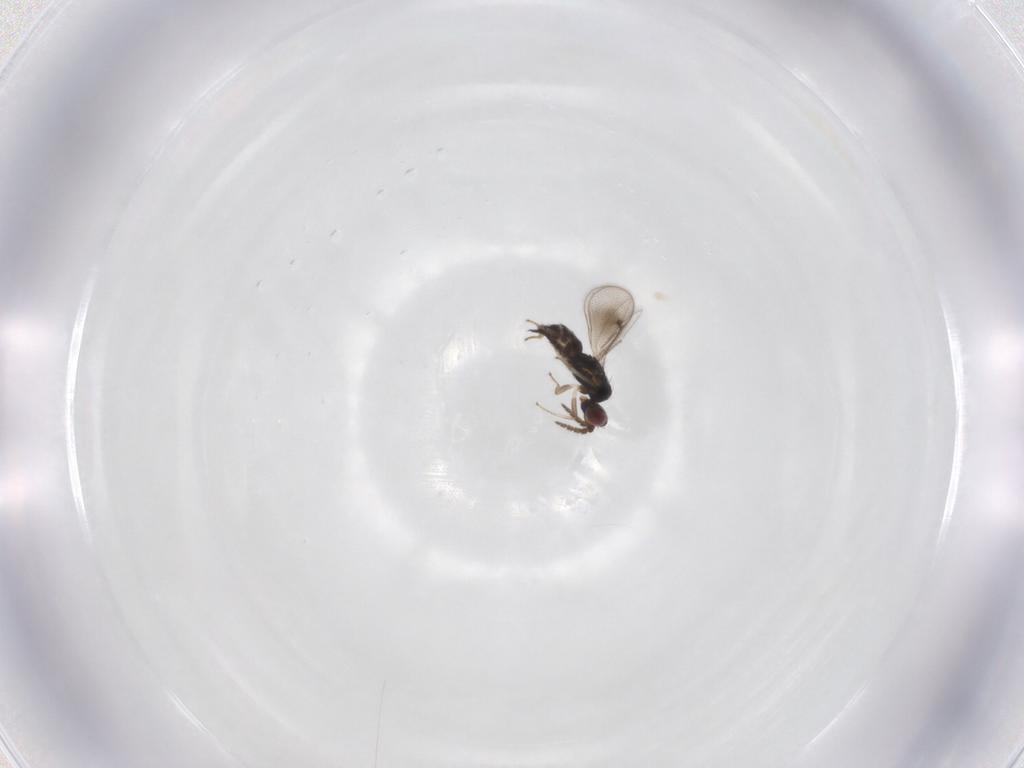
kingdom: Animalia
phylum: Arthropoda
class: Insecta
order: Hymenoptera
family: Eulophidae
